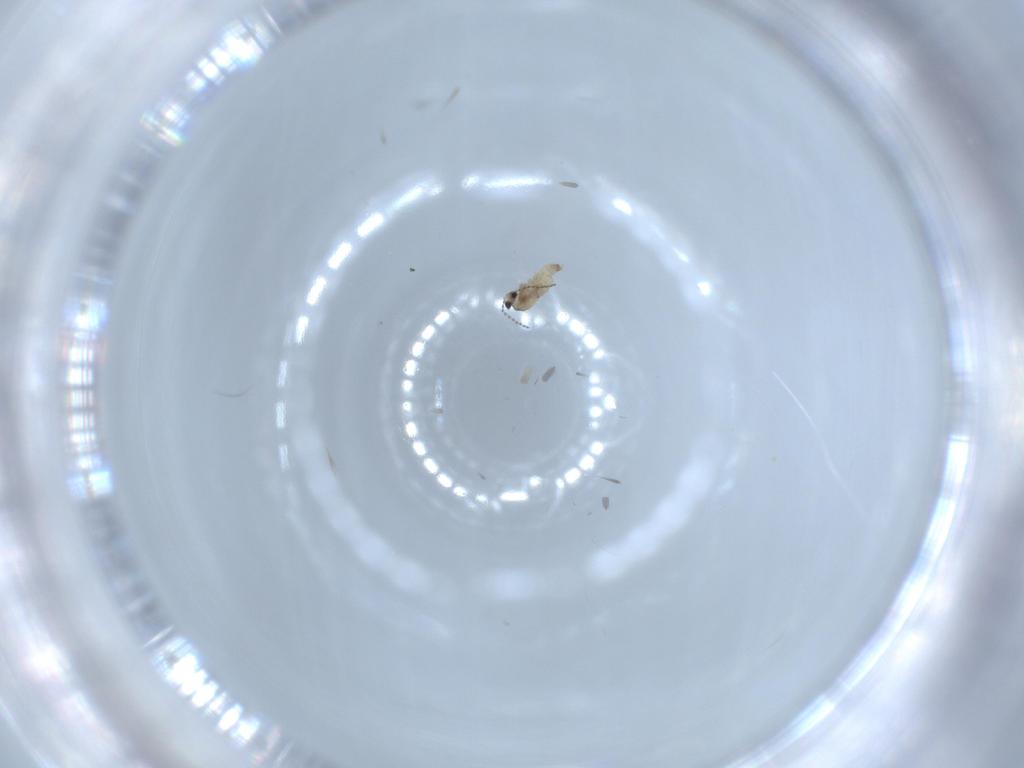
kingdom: Animalia
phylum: Arthropoda
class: Insecta
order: Diptera
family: Cecidomyiidae
